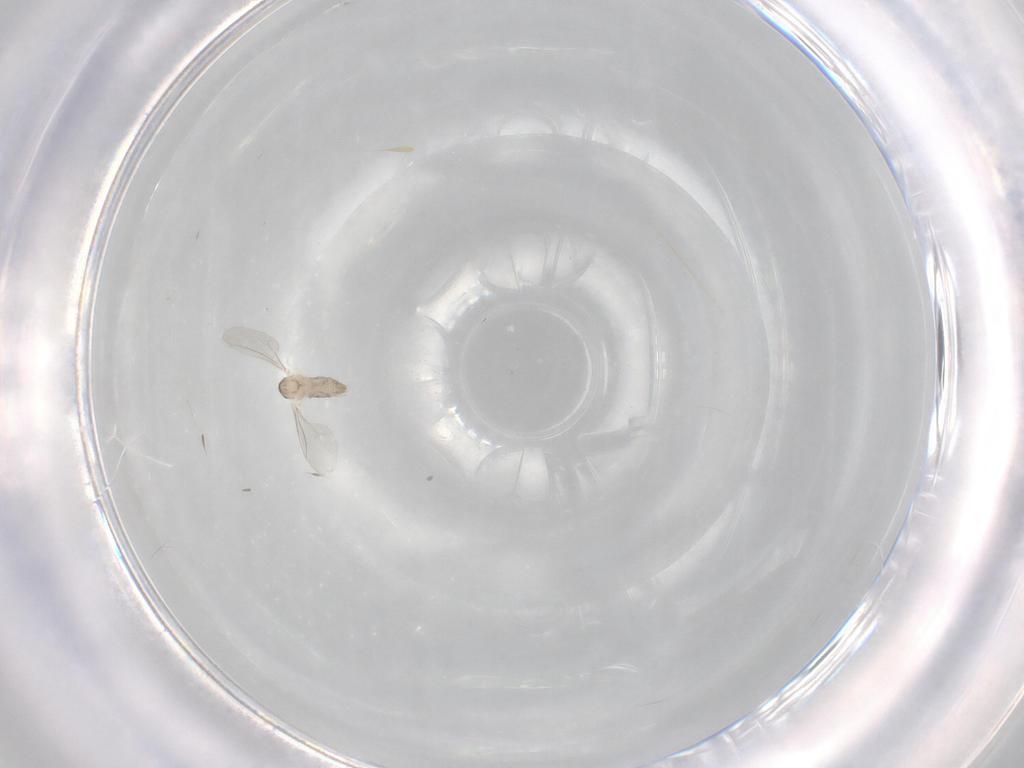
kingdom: Animalia
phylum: Arthropoda
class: Insecta
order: Diptera
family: Cecidomyiidae
